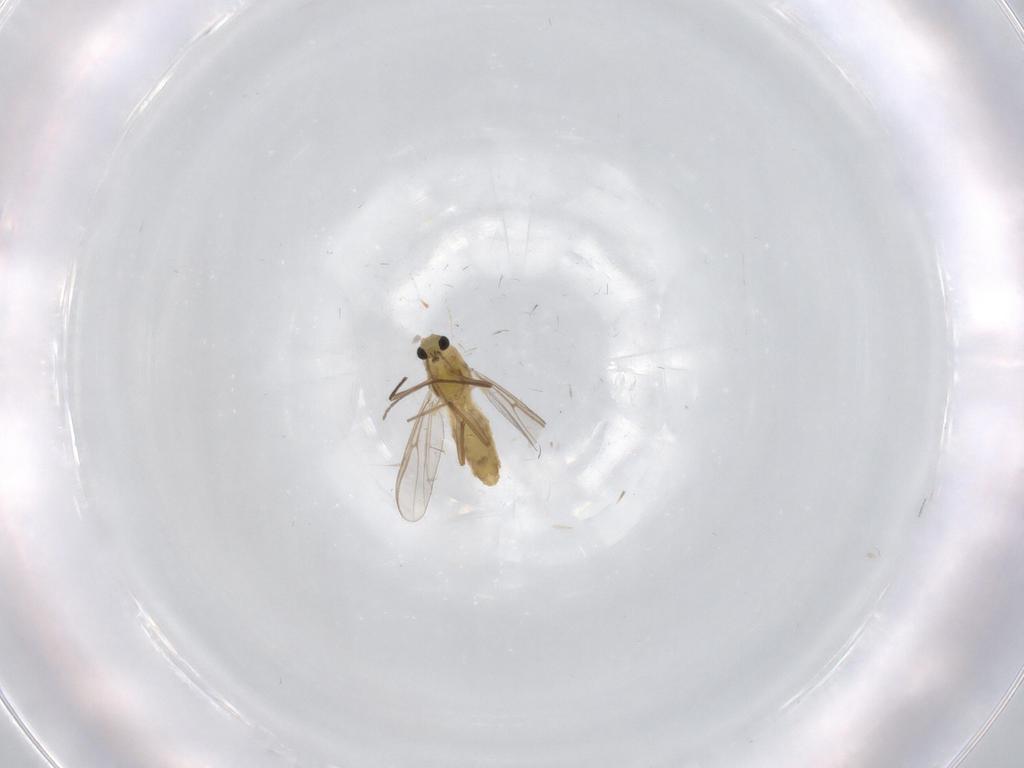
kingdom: Animalia
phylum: Arthropoda
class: Insecta
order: Diptera
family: Chironomidae
